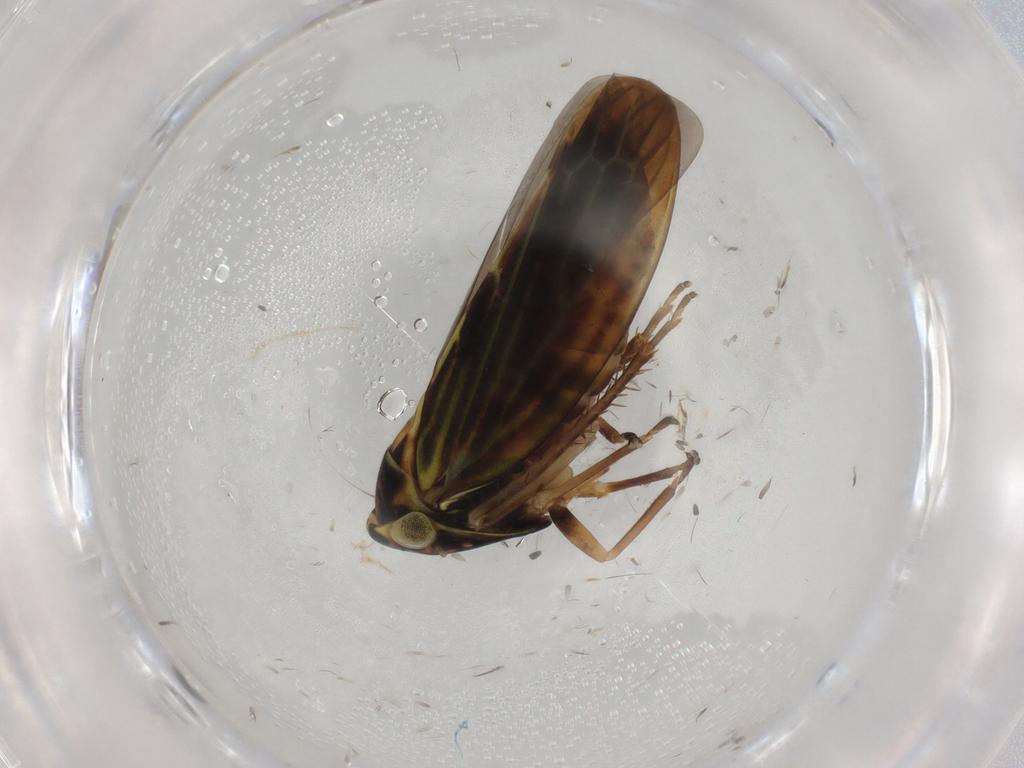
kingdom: Animalia
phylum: Arthropoda
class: Insecta
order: Hemiptera
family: Cicadellidae
